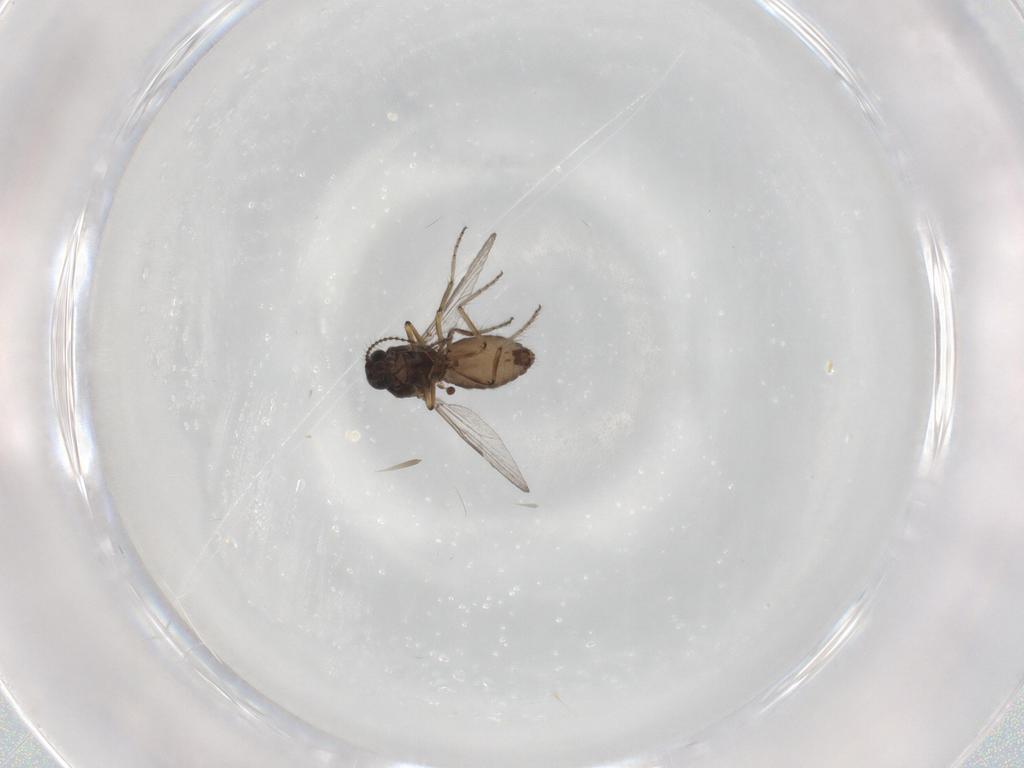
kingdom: Animalia
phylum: Arthropoda
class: Insecta
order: Diptera
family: Ceratopogonidae
